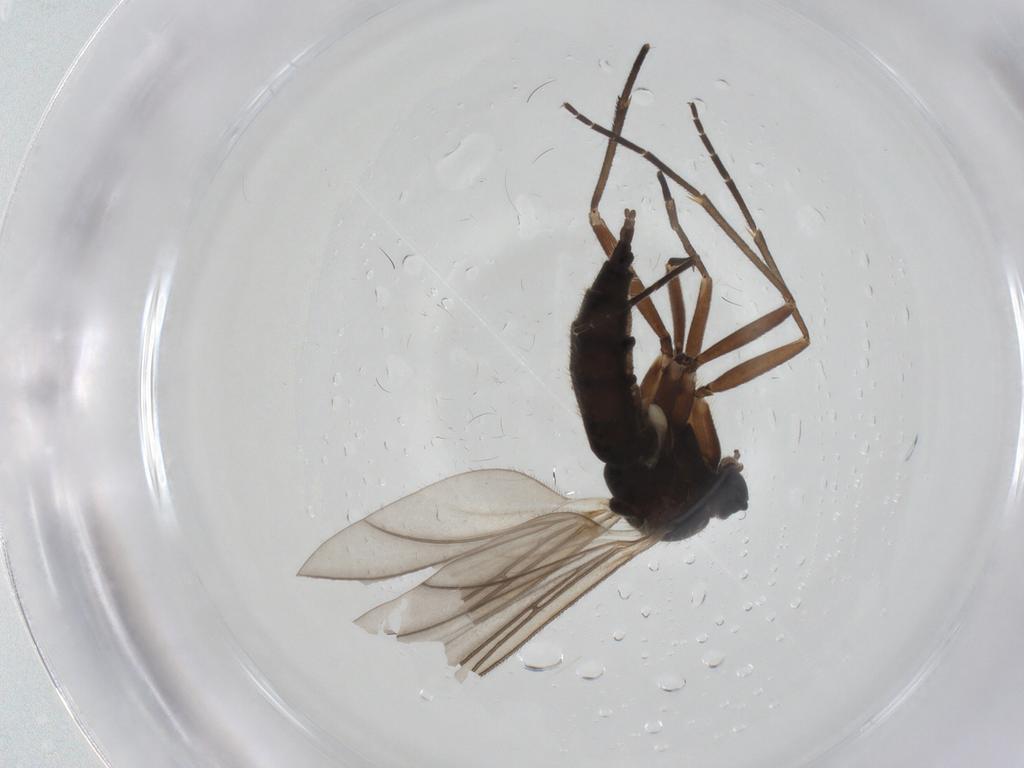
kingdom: Animalia
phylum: Arthropoda
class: Insecta
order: Diptera
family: Sciaridae
